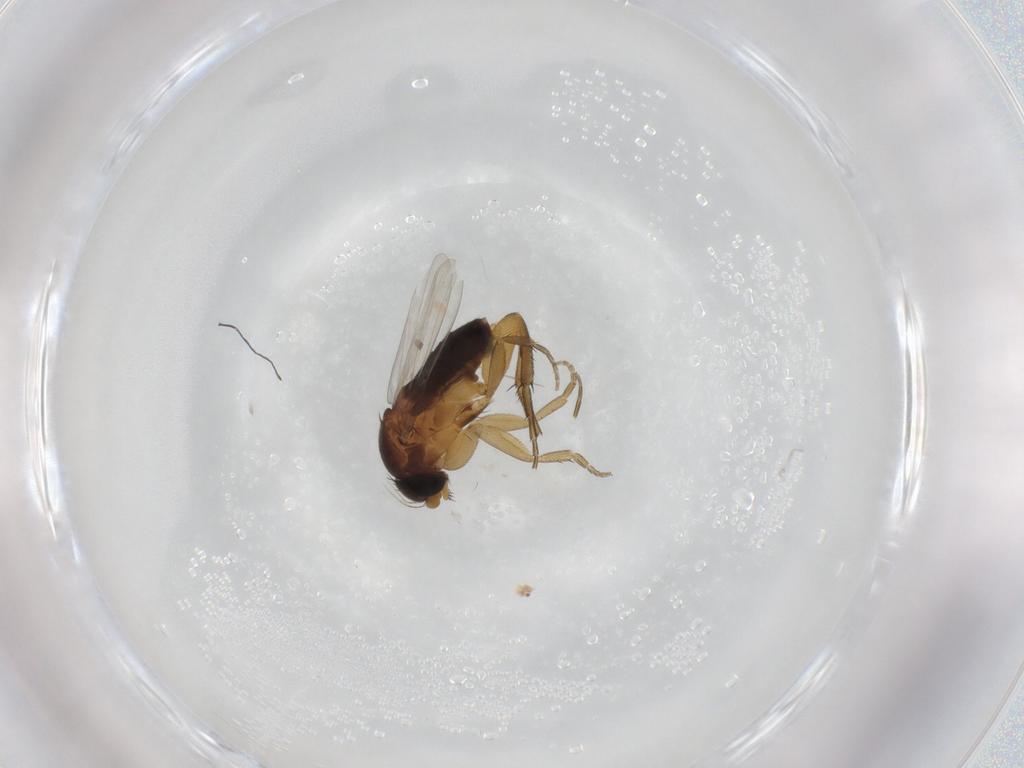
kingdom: Animalia
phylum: Arthropoda
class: Insecta
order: Diptera
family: Phoridae
